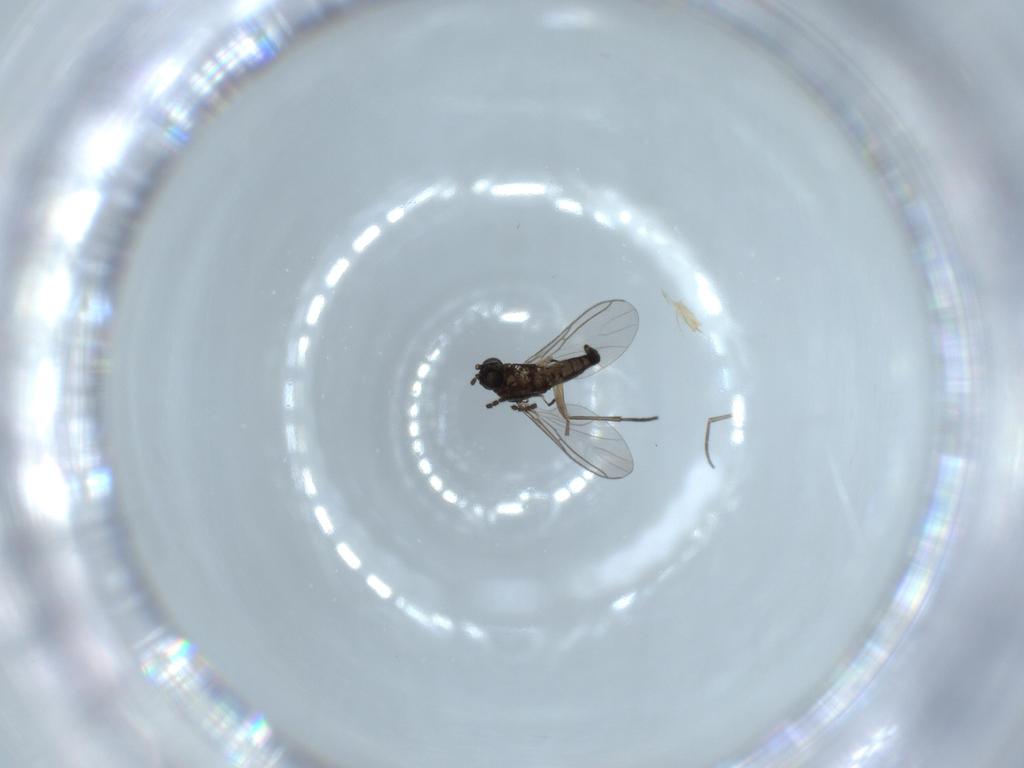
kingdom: Animalia
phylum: Arthropoda
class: Insecta
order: Diptera
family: Sciaridae
